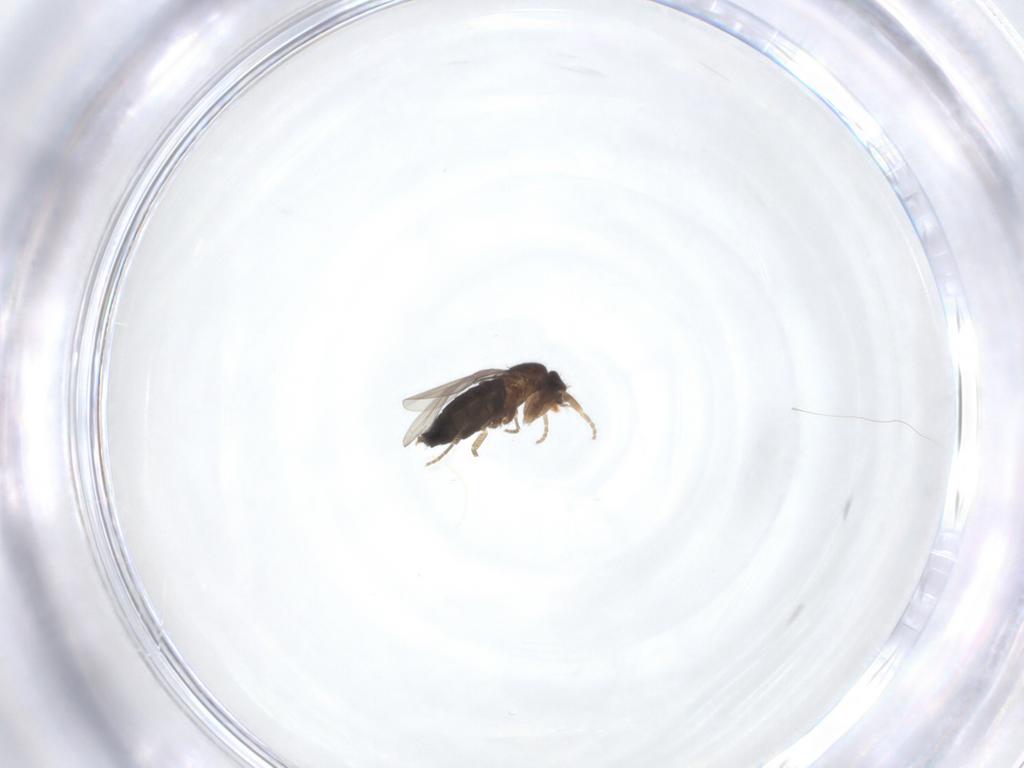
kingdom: Animalia
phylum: Arthropoda
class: Insecta
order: Diptera
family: Phoridae
